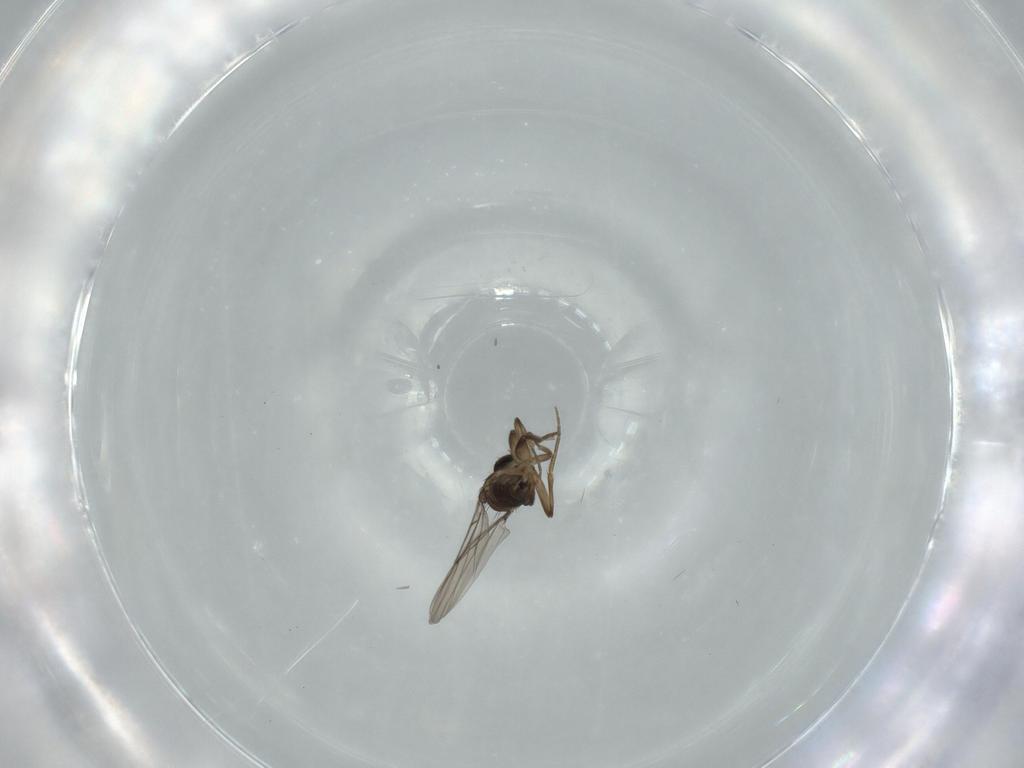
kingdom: Animalia
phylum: Arthropoda
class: Insecta
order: Diptera
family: Phoridae
